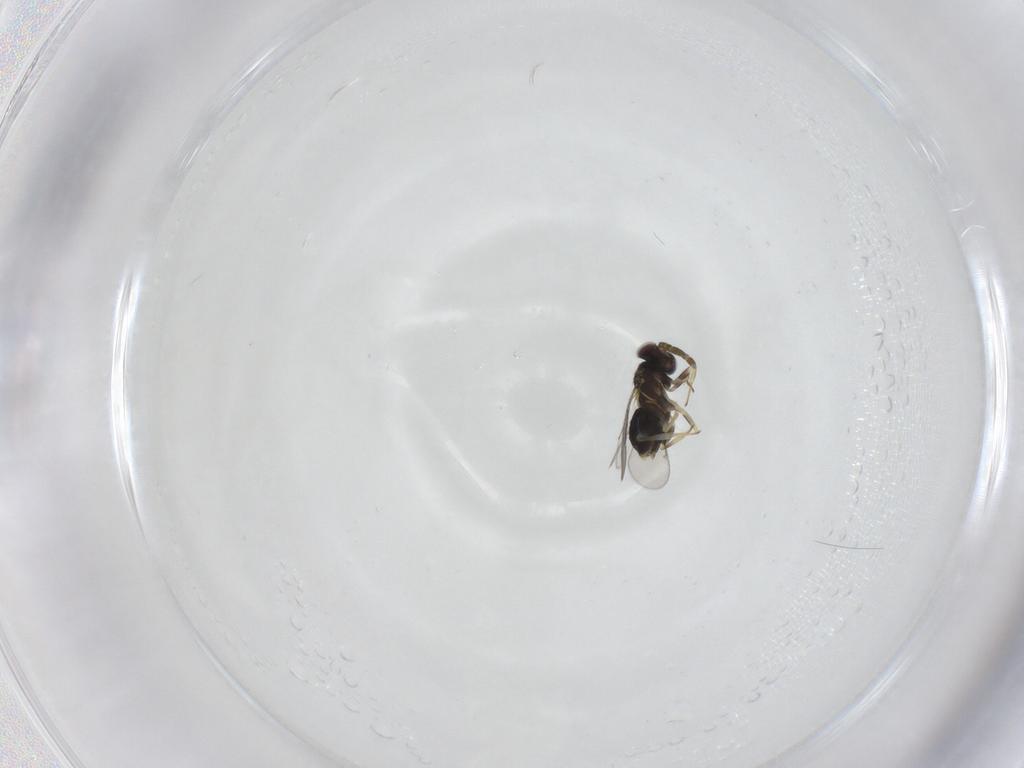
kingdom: Animalia
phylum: Arthropoda
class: Insecta
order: Hymenoptera
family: Aphelinidae
